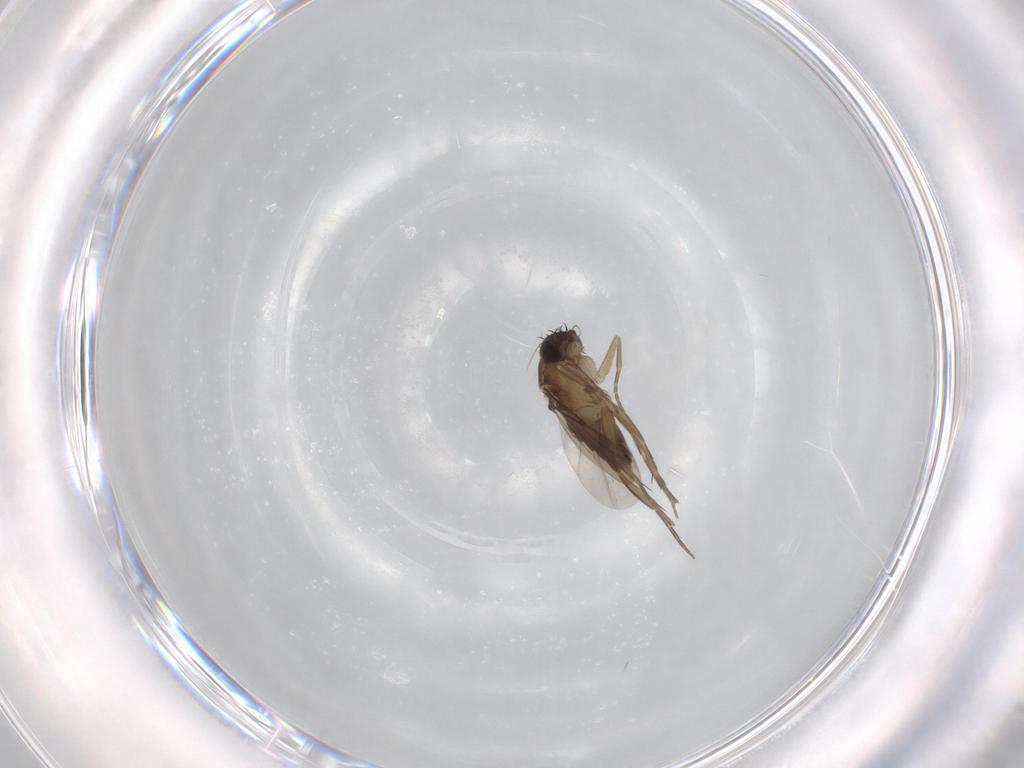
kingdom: Animalia
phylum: Arthropoda
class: Insecta
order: Diptera
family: Phoridae
